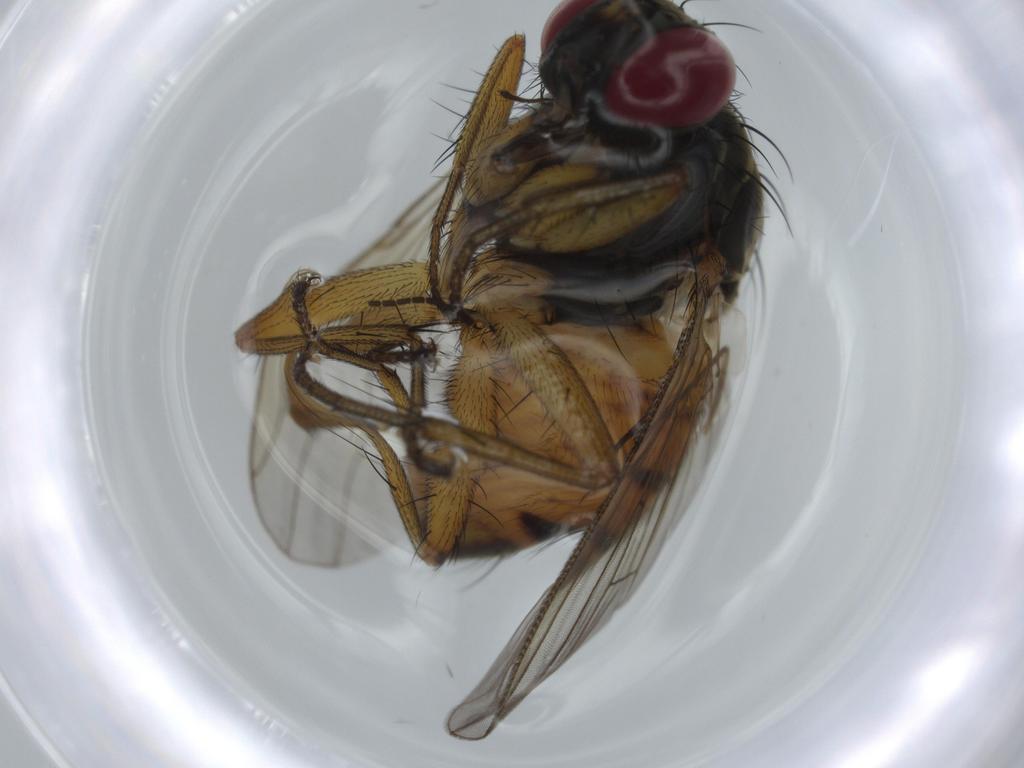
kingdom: Animalia
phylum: Arthropoda
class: Insecta
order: Diptera
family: Muscidae
